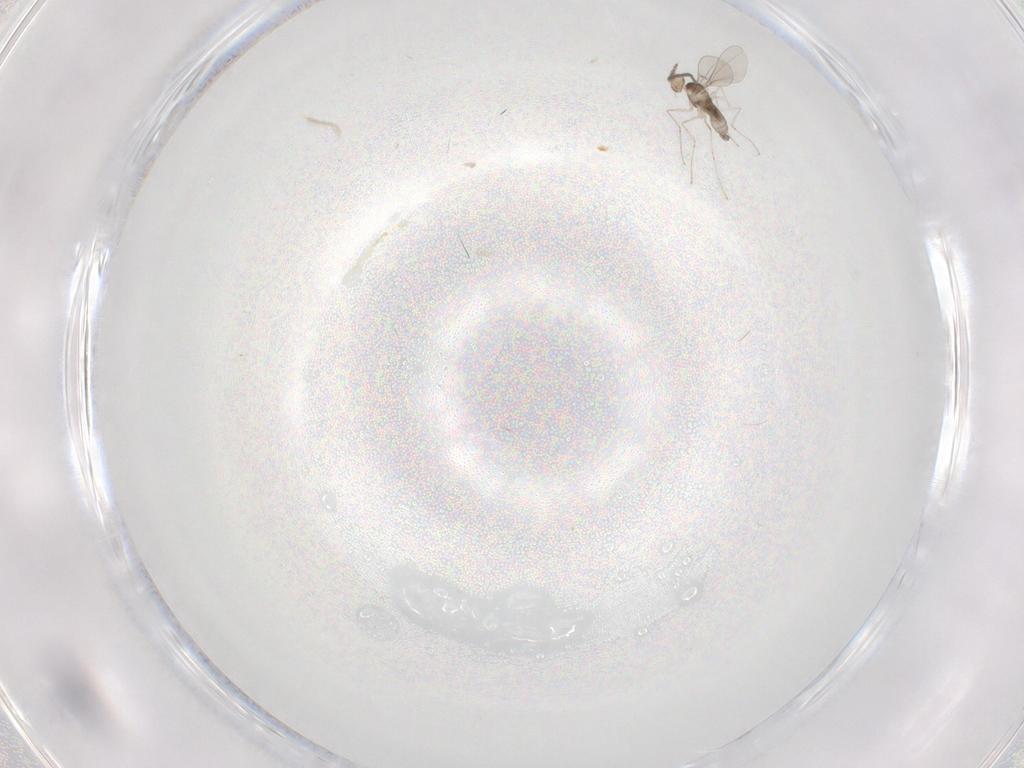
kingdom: Animalia
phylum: Arthropoda
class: Insecta
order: Diptera
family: Cecidomyiidae
